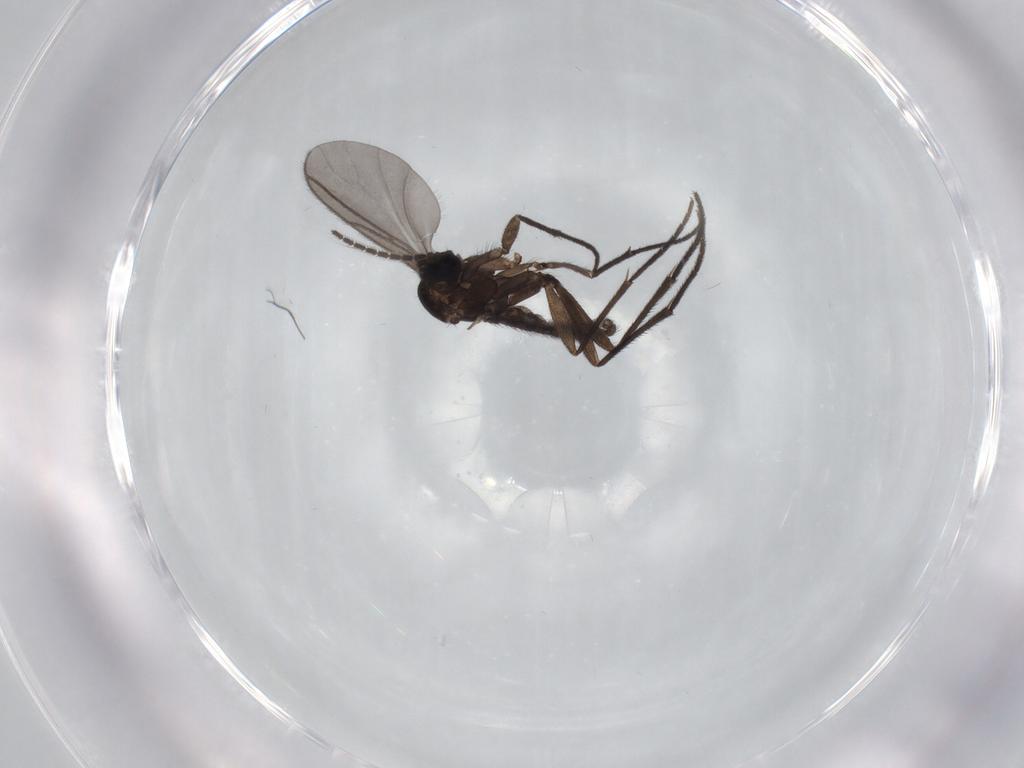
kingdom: Animalia
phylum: Arthropoda
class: Insecta
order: Diptera
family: Sciaridae
